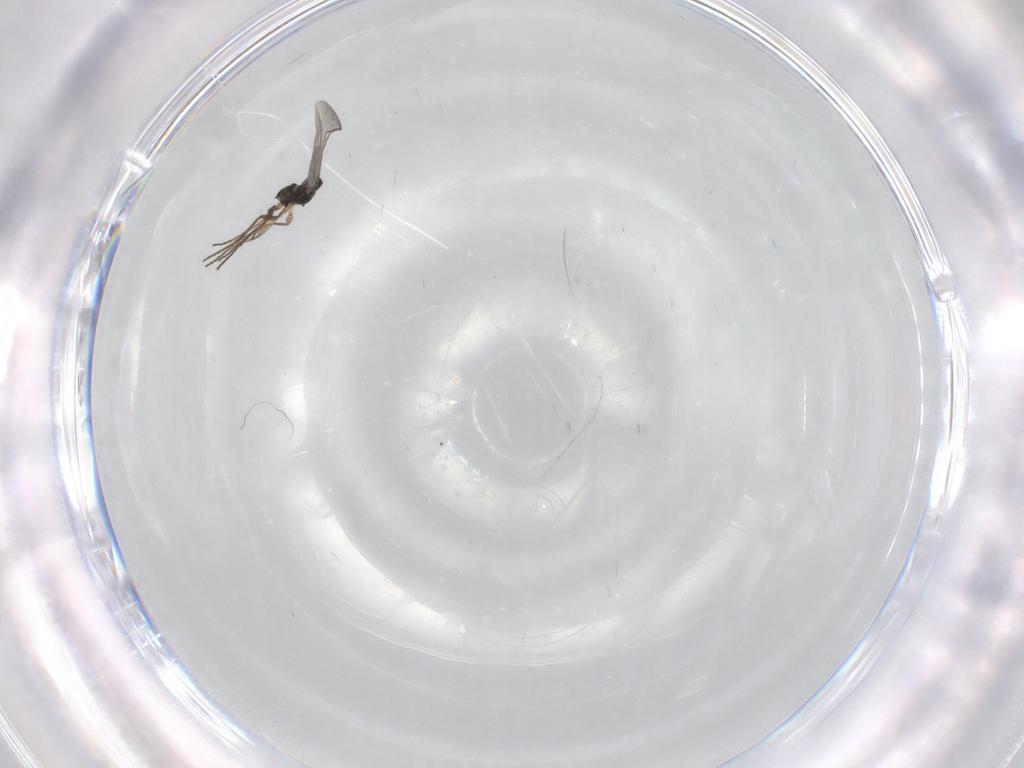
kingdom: Animalia
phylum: Arthropoda
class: Insecta
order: Diptera
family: Sciaridae
